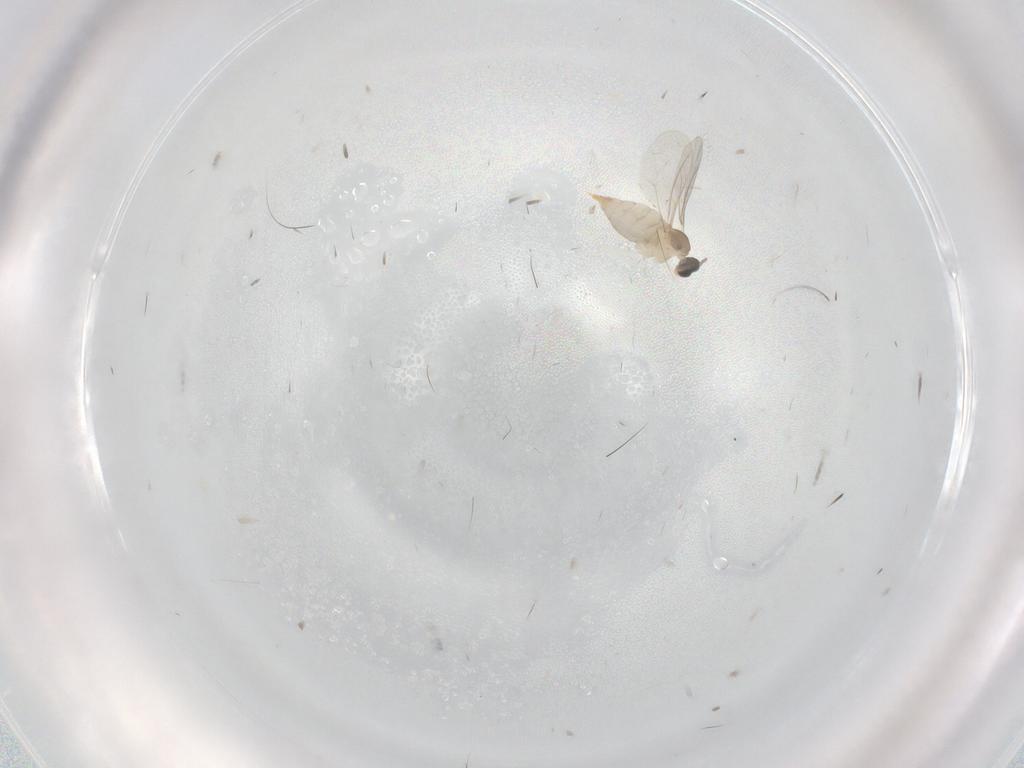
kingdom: Animalia
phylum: Arthropoda
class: Insecta
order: Diptera
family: Cecidomyiidae
